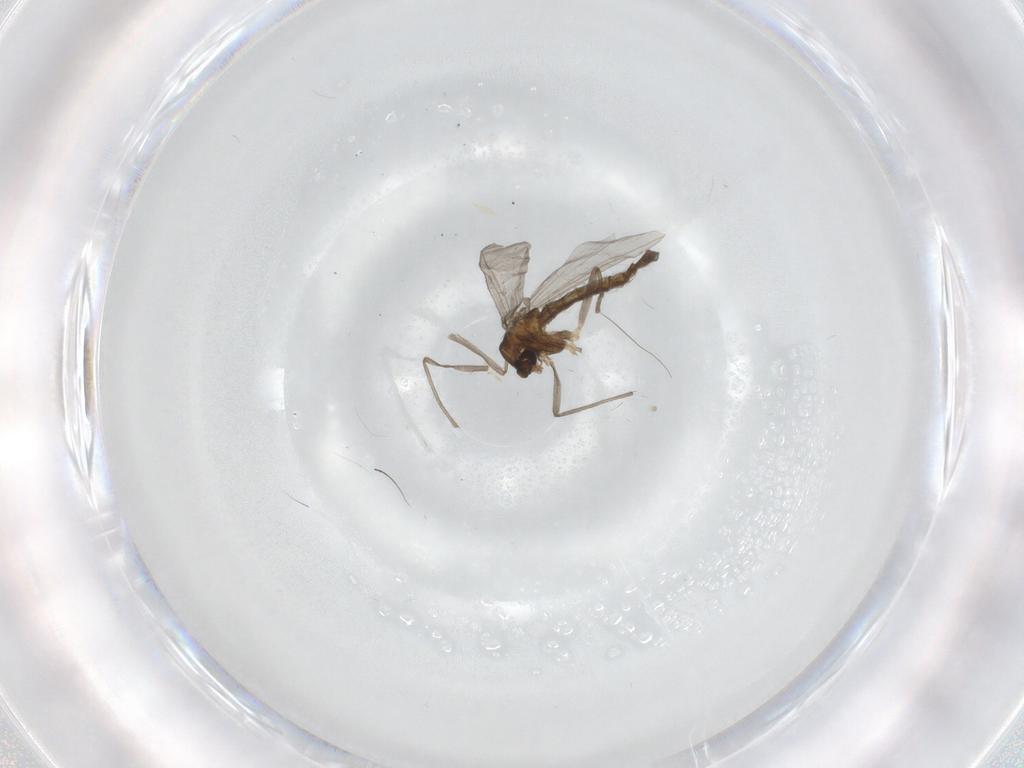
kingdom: Animalia
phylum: Arthropoda
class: Insecta
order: Diptera
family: Chironomidae
